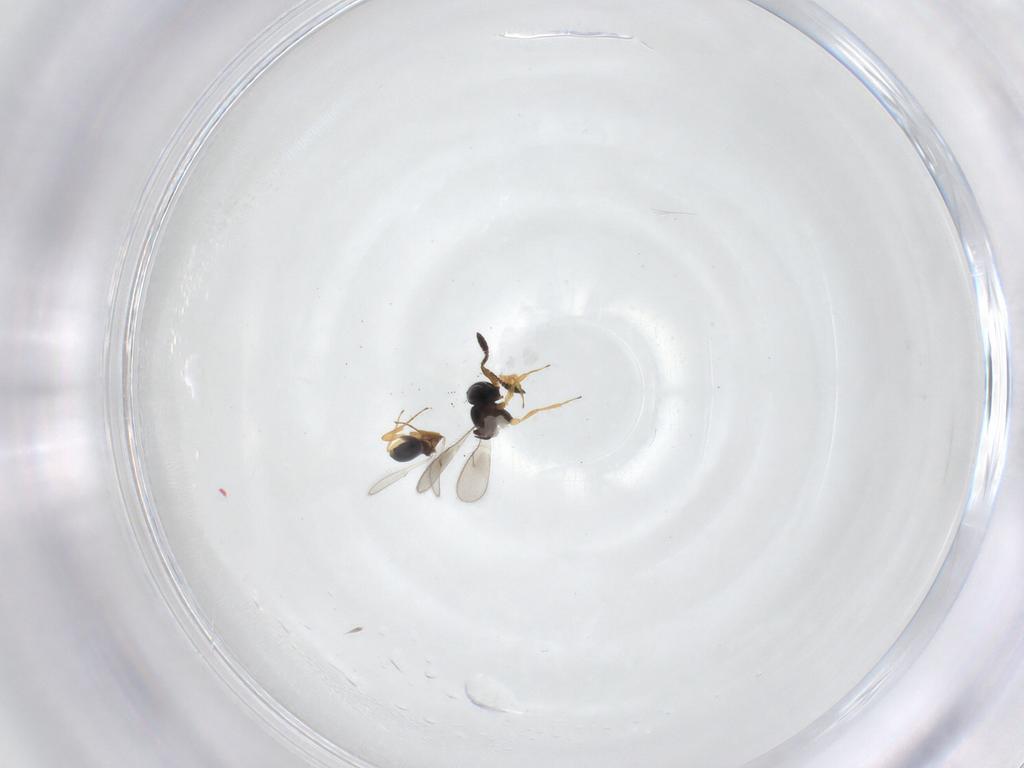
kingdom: Animalia
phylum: Arthropoda
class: Insecta
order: Hymenoptera
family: Scelionidae
